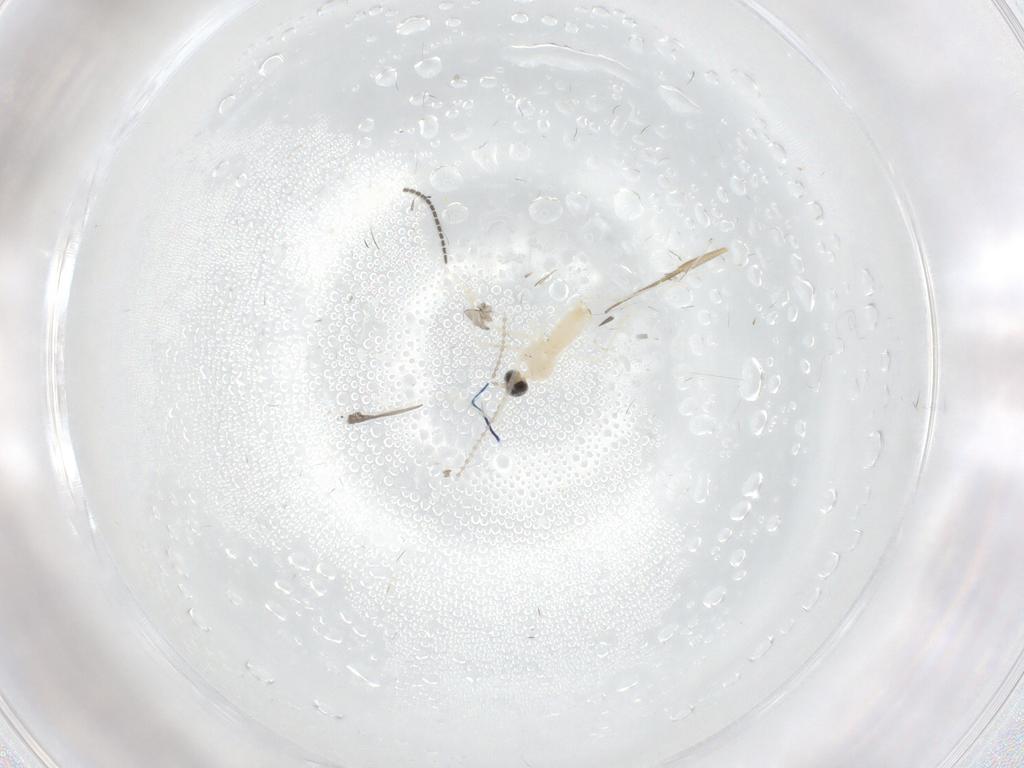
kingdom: Animalia
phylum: Arthropoda
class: Insecta
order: Diptera
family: Cecidomyiidae
